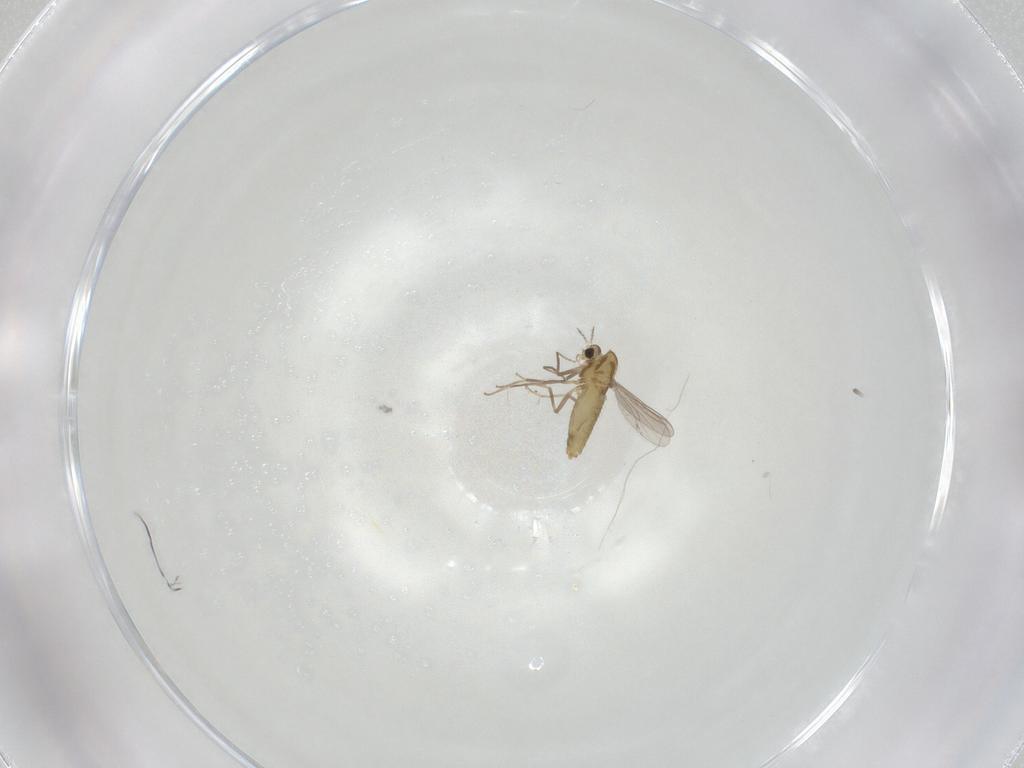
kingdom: Animalia
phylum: Arthropoda
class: Insecta
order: Diptera
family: Chironomidae
